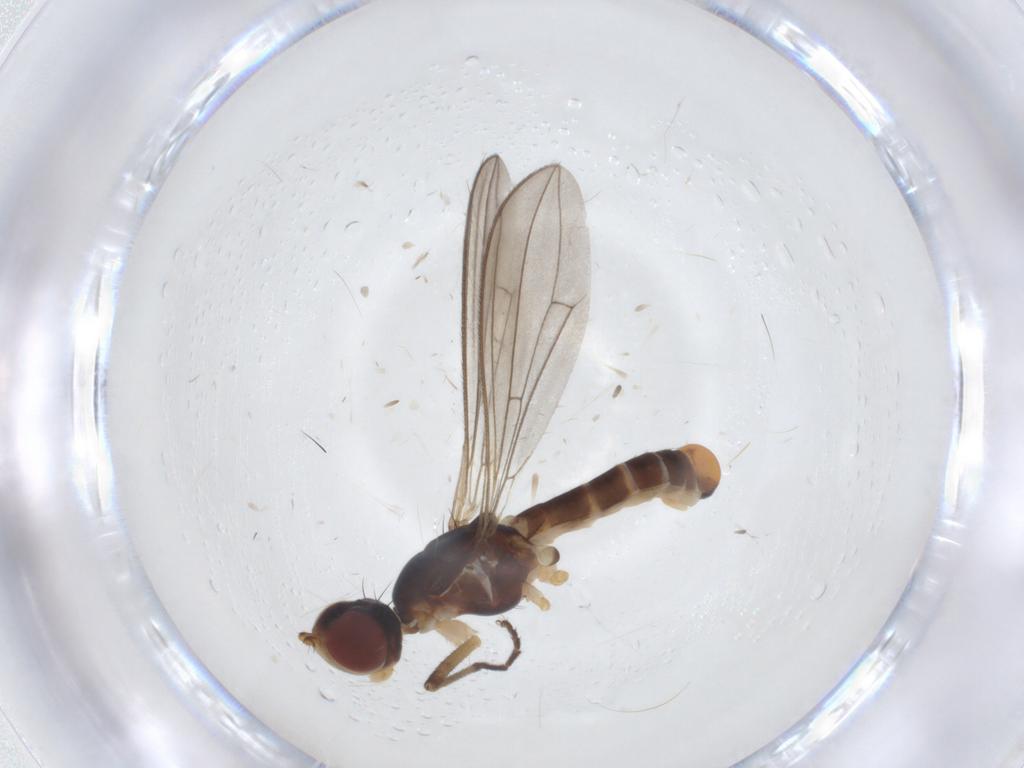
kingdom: Animalia
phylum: Arthropoda
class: Insecta
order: Diptera
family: Micropezidae
